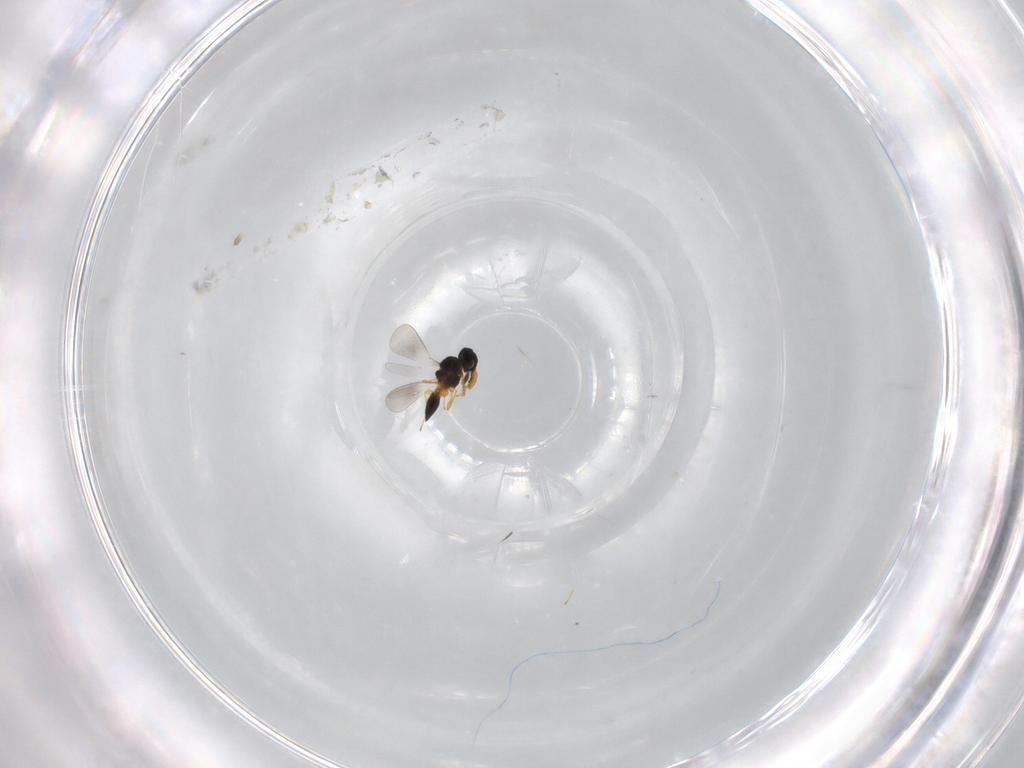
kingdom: Animalia
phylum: Arthropoda
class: Insecta
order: Hymenoptera
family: Platygastridae
